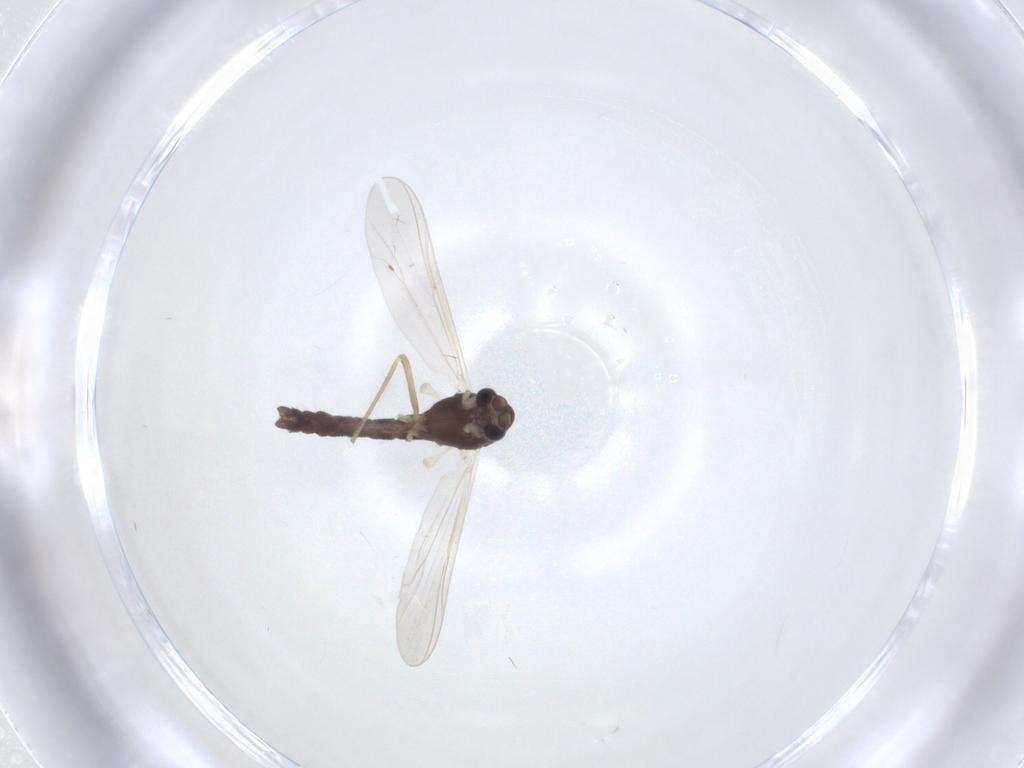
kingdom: Animalia
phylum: Arthropoda
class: Insecta
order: Diptera
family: Chironomidae
